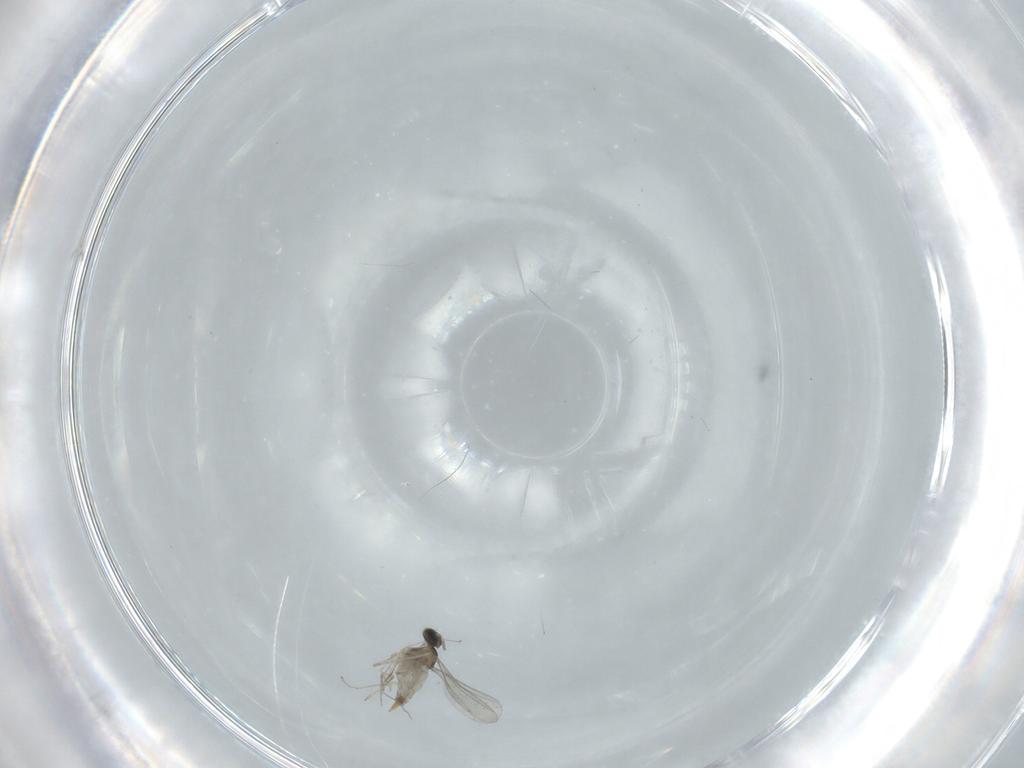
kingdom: Animalia
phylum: Arthropoda
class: Insecta
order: Diptera
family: Cecidomyiidae
